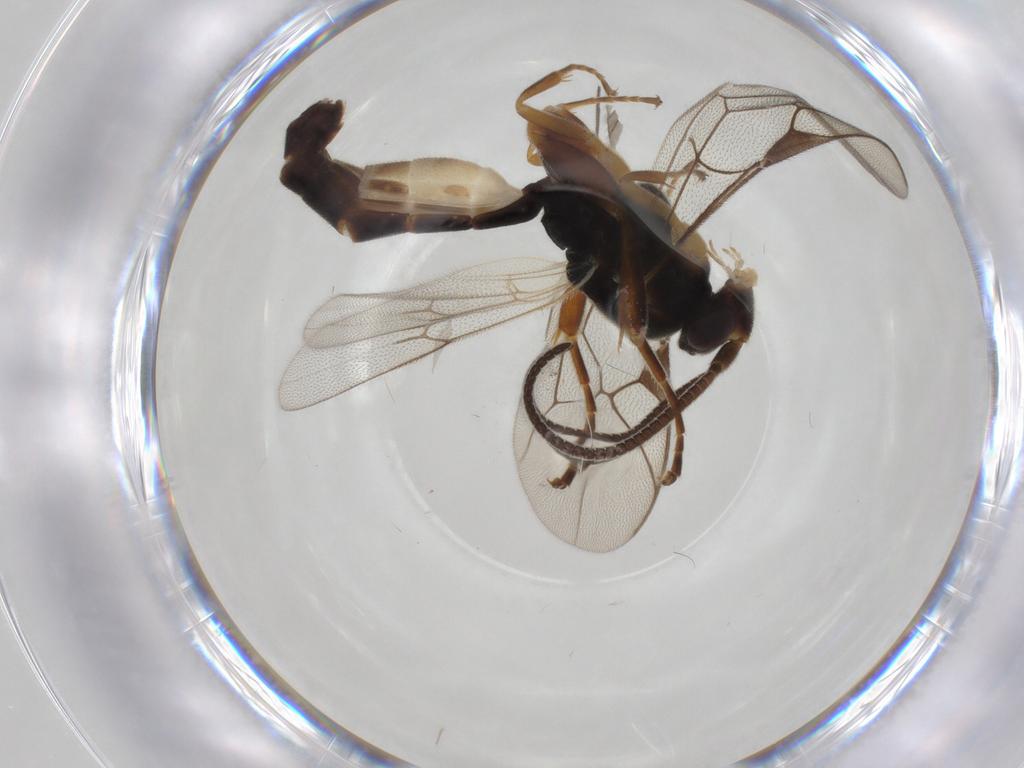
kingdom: Animalia
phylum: Arthropoda
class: Insecta
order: Hymenoptera
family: Ichneumonidae
